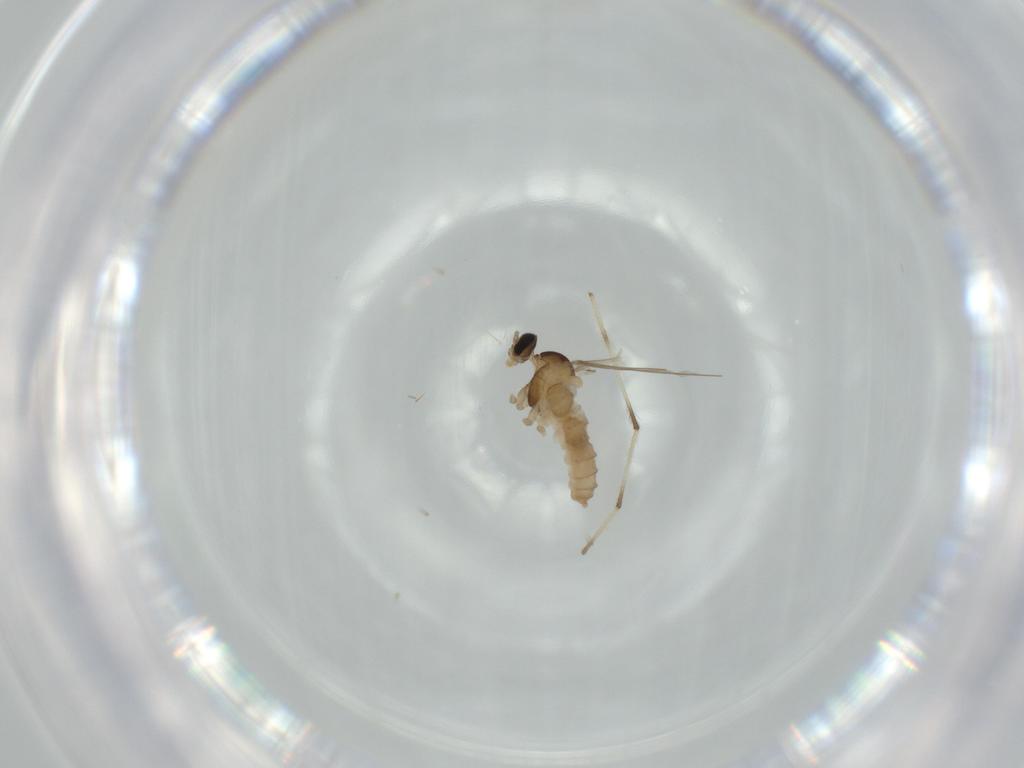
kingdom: Animalia
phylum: Arthropoda
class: Insecta
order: Diptera
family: Cecidomyiidae
